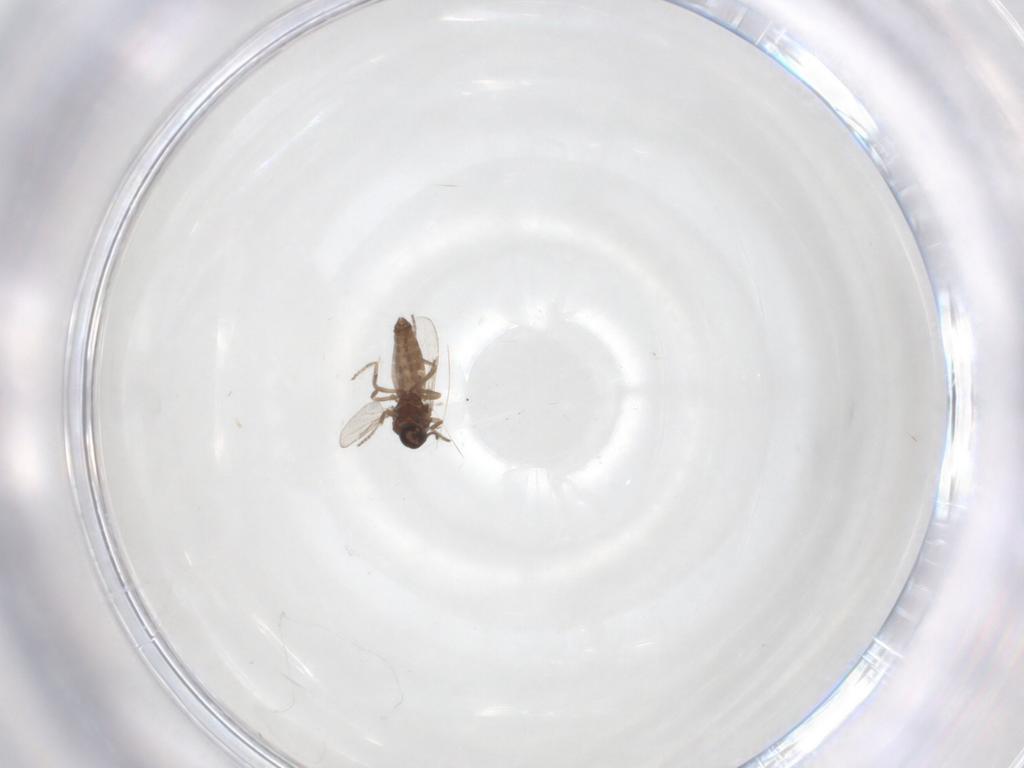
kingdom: Animalia
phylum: Arthropoda
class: Insecta
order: Diptera
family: Ceratopogonidae
